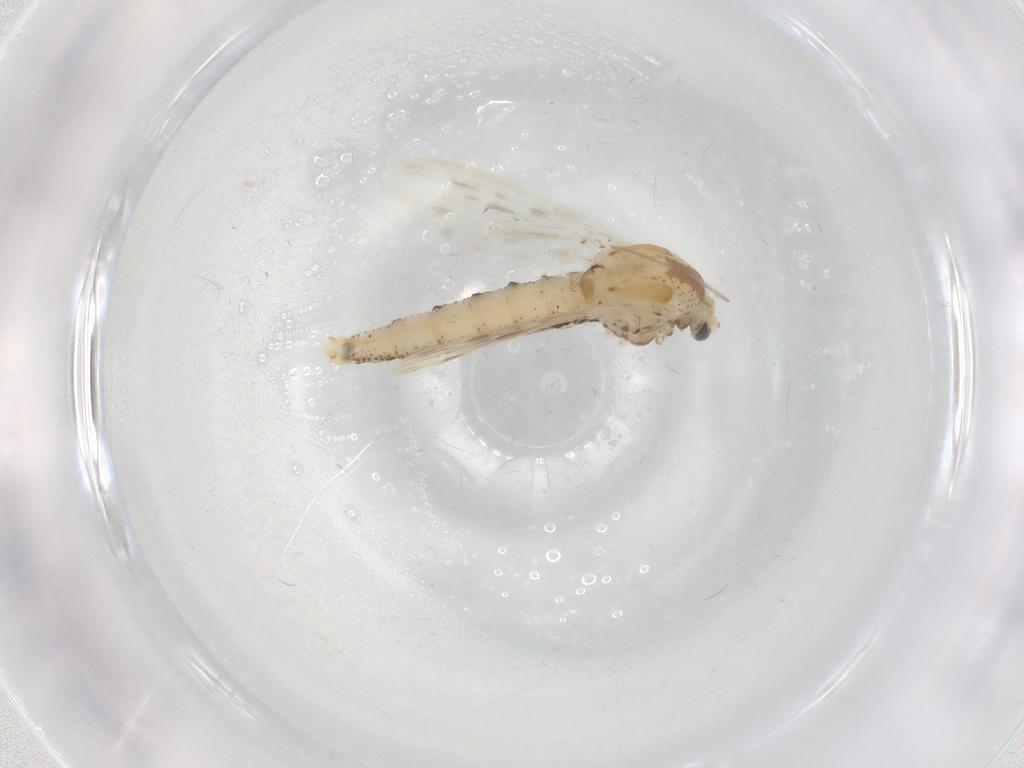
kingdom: Animalia
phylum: Arthropoda
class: Insecta
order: Diptera
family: Chaoboridae
